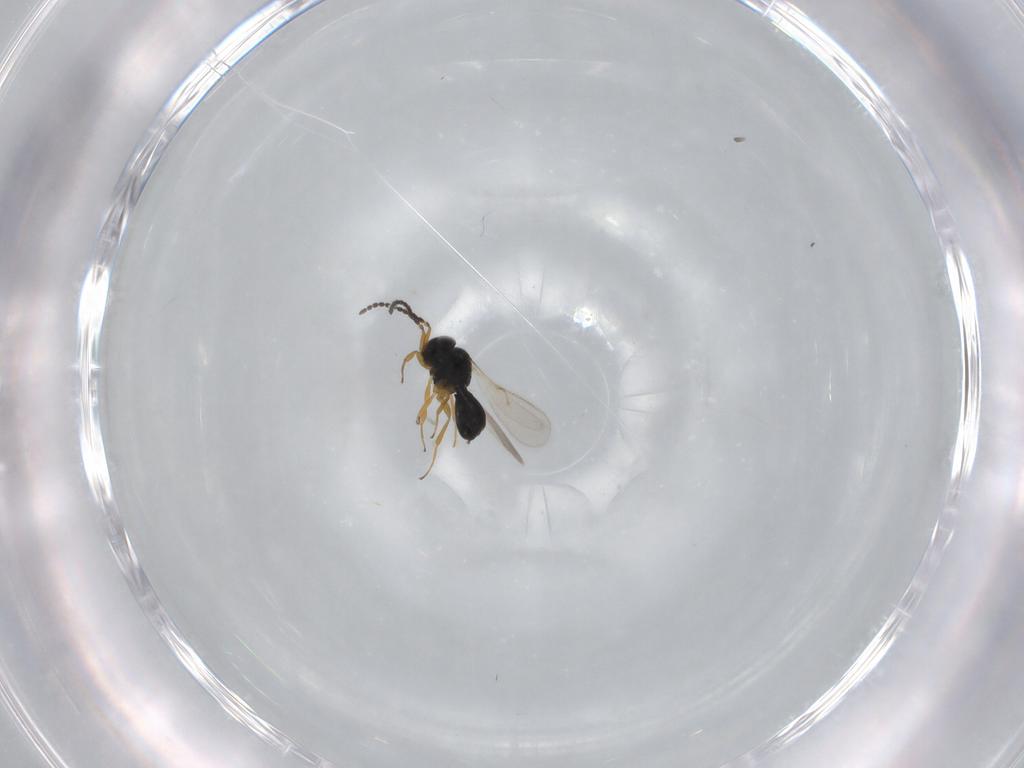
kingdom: Animalia
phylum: Arthropoda
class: Insecta
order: Hymenoptera
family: Scelionidae
